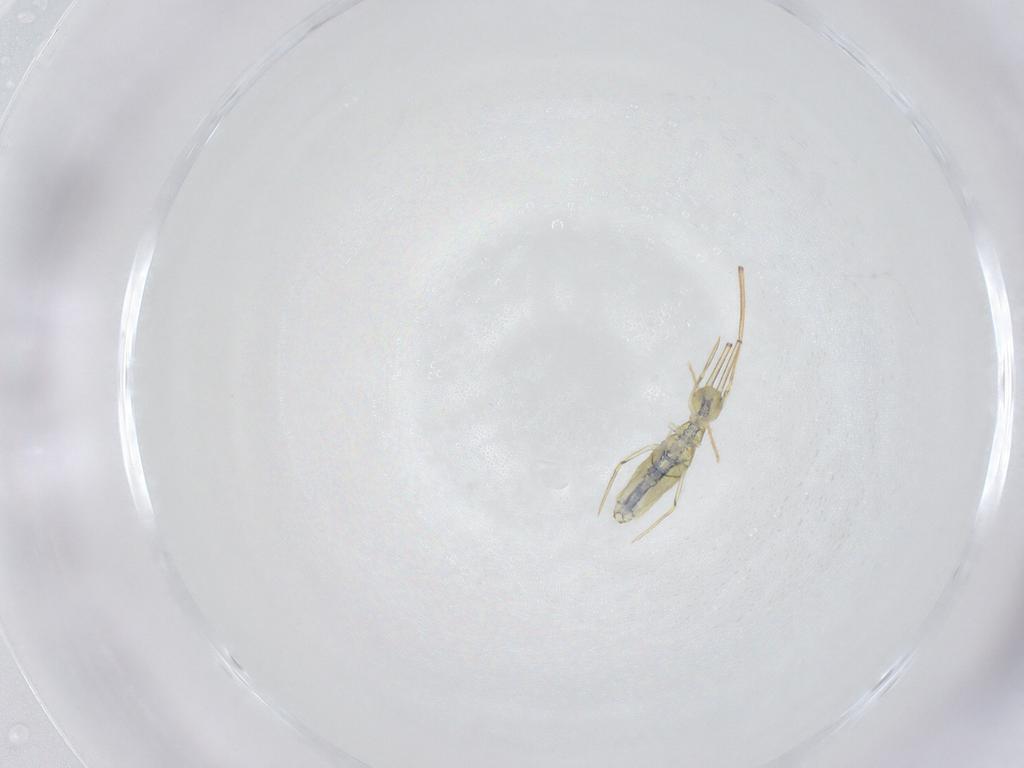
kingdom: Animalia
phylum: Arthropoda
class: Collembola
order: Entomobryomorpha
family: Paronellidae
